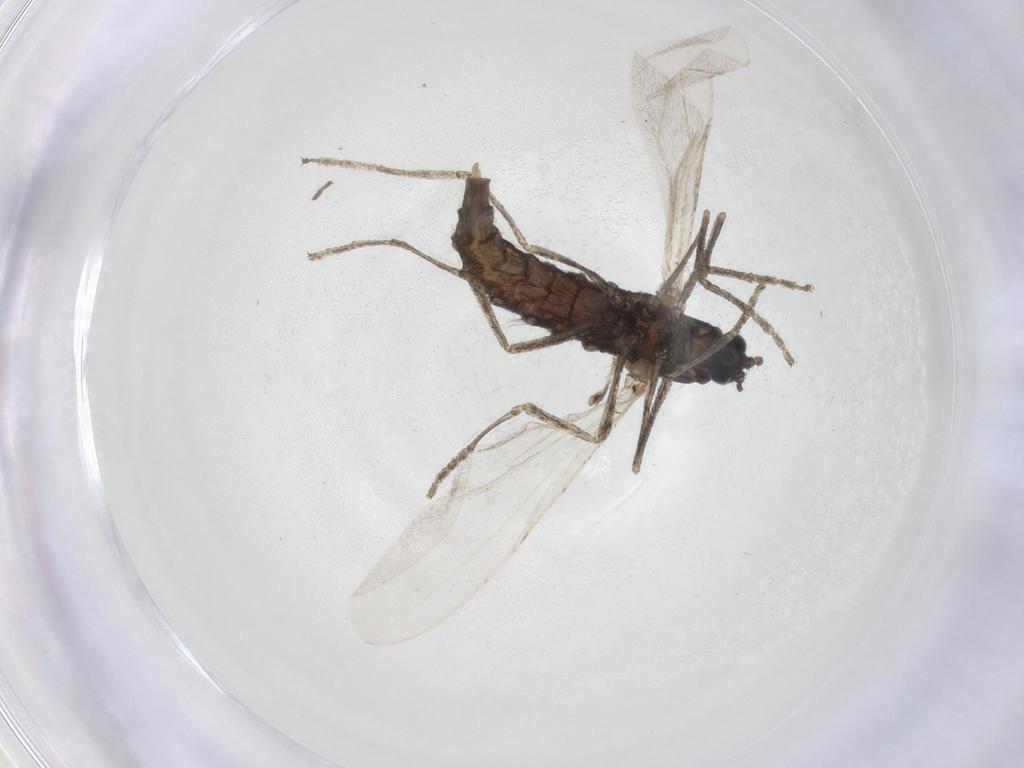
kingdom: Animalia
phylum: Arthropoda
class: Insecta
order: Diptera
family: Cecidomyiidae
